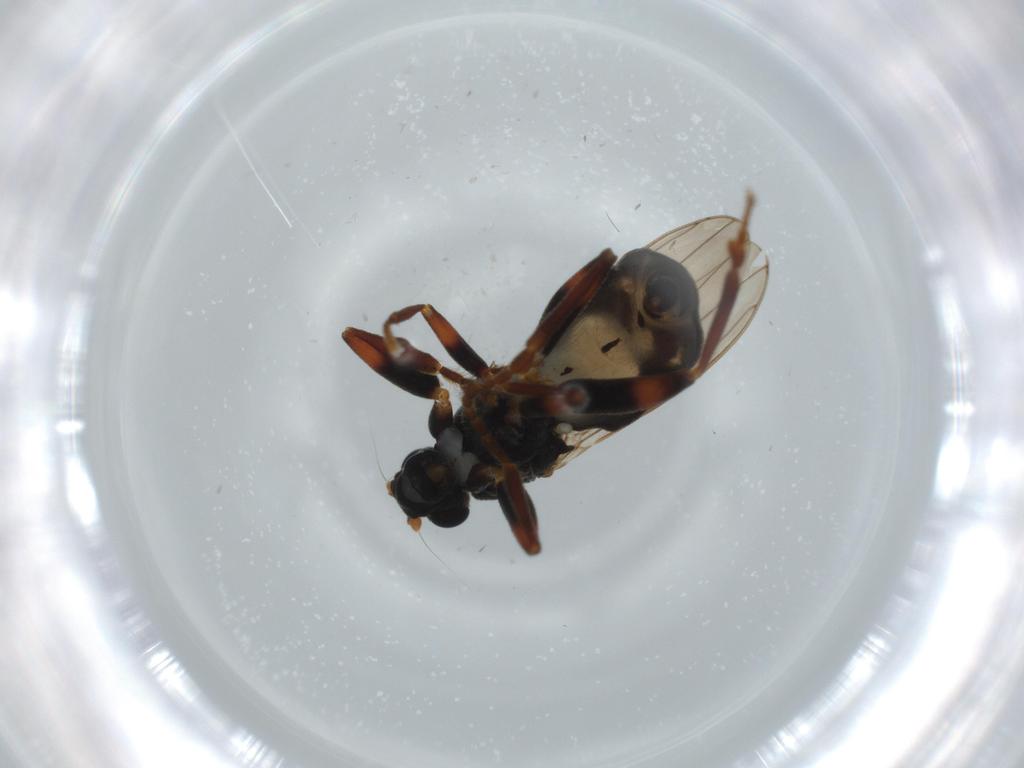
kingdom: Animalia
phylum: Arthropoda
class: Insecta
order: Diptera
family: Sphaeroceridae
